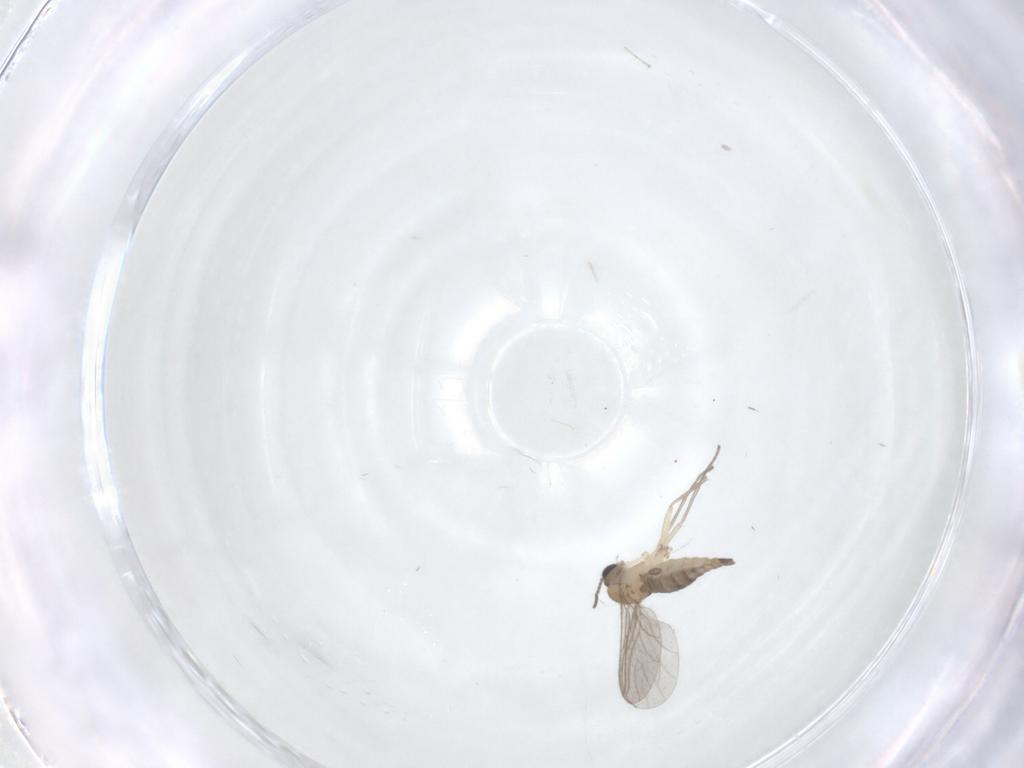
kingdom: Animalia
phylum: Arthropoda
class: Insecta
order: Diptera
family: Sciaridae
